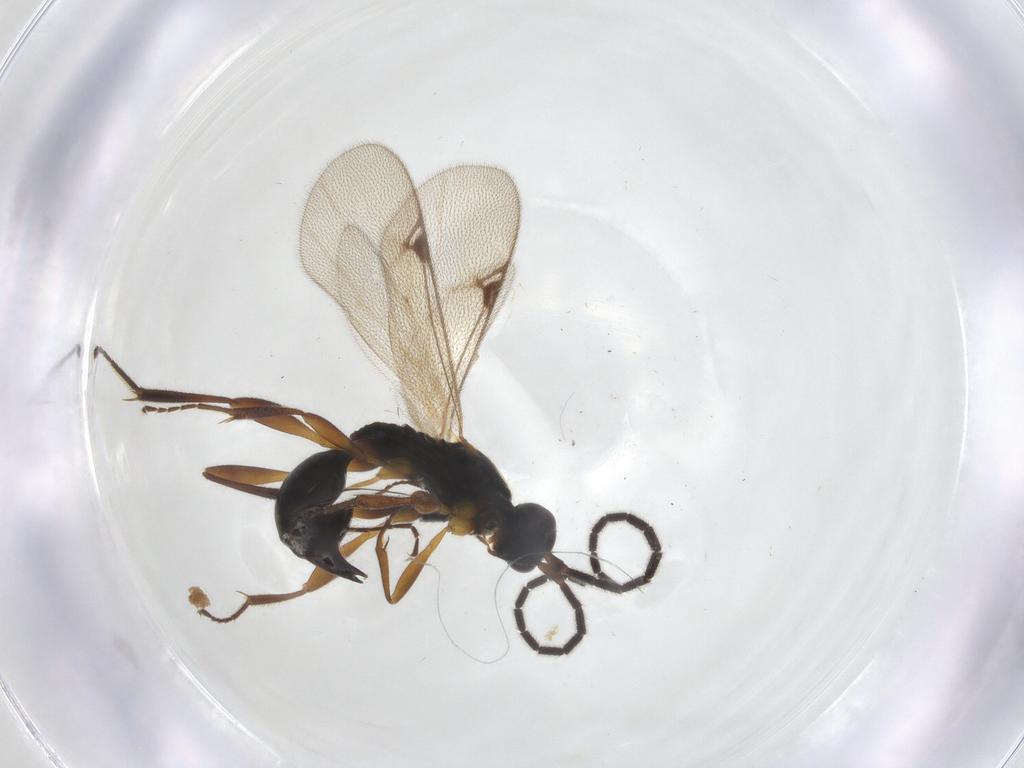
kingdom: Animalia
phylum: Arthropoda
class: Insecta
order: Hymenoptera
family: Proctotrupidae
